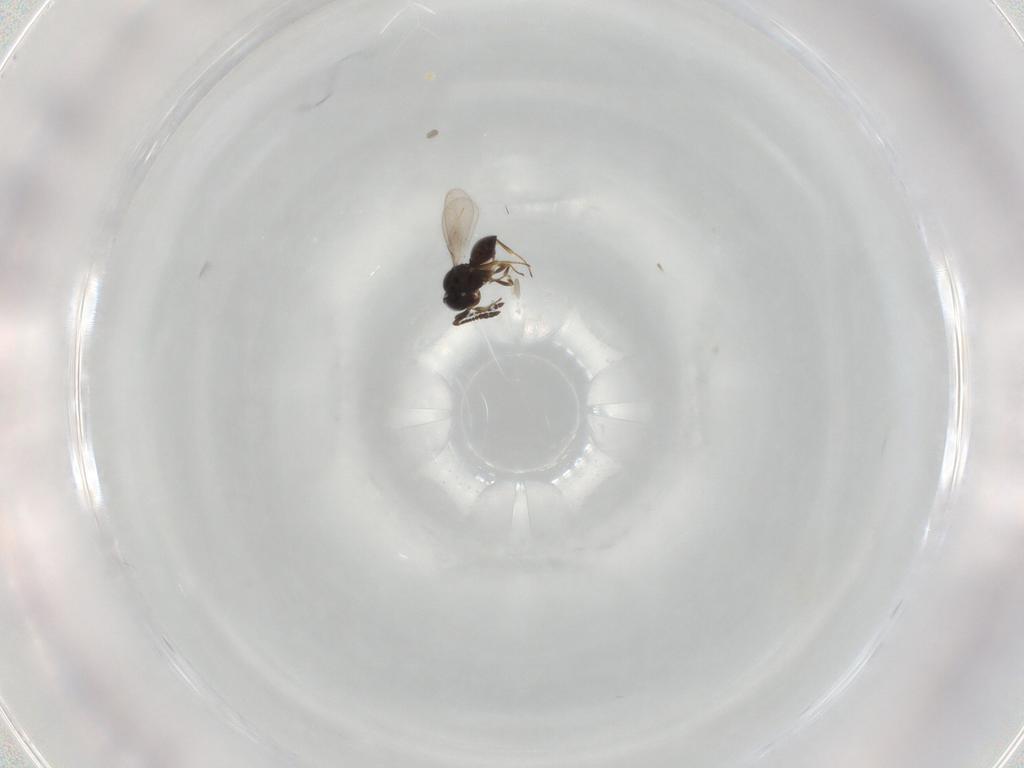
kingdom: Animalia
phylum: Arthropoda
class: Insecta
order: Hymenoptera
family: Scelionidae
